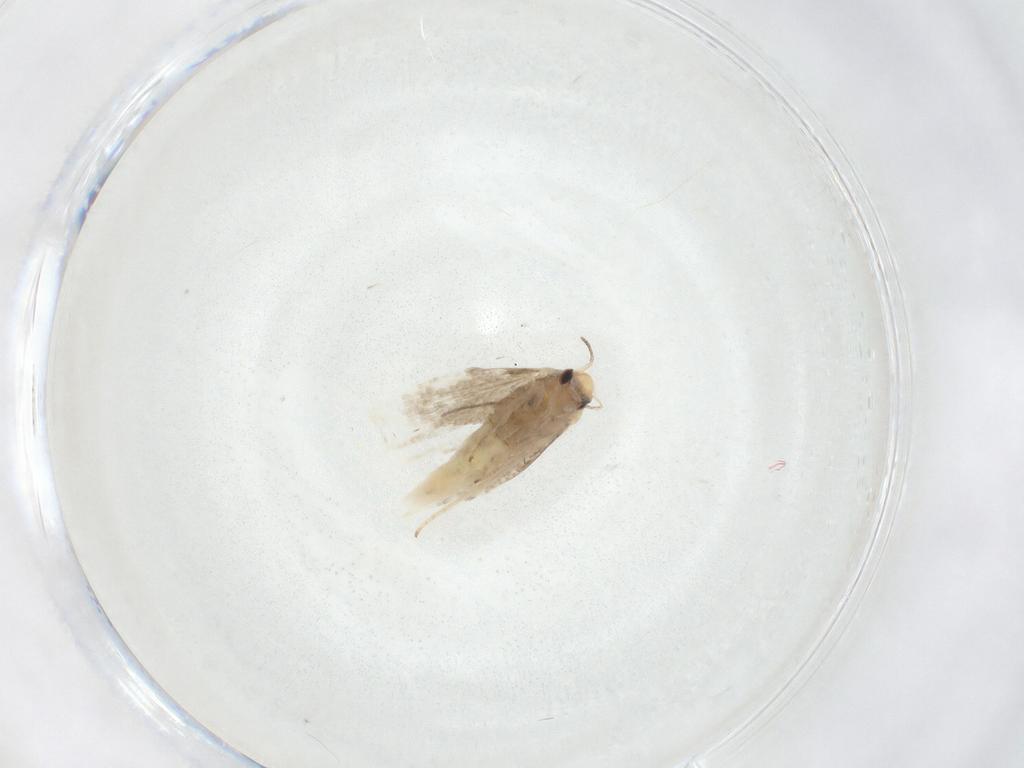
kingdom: Animalia
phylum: Arthropoda
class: Insecta
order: Lepidoptera
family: Lyonetiidae
